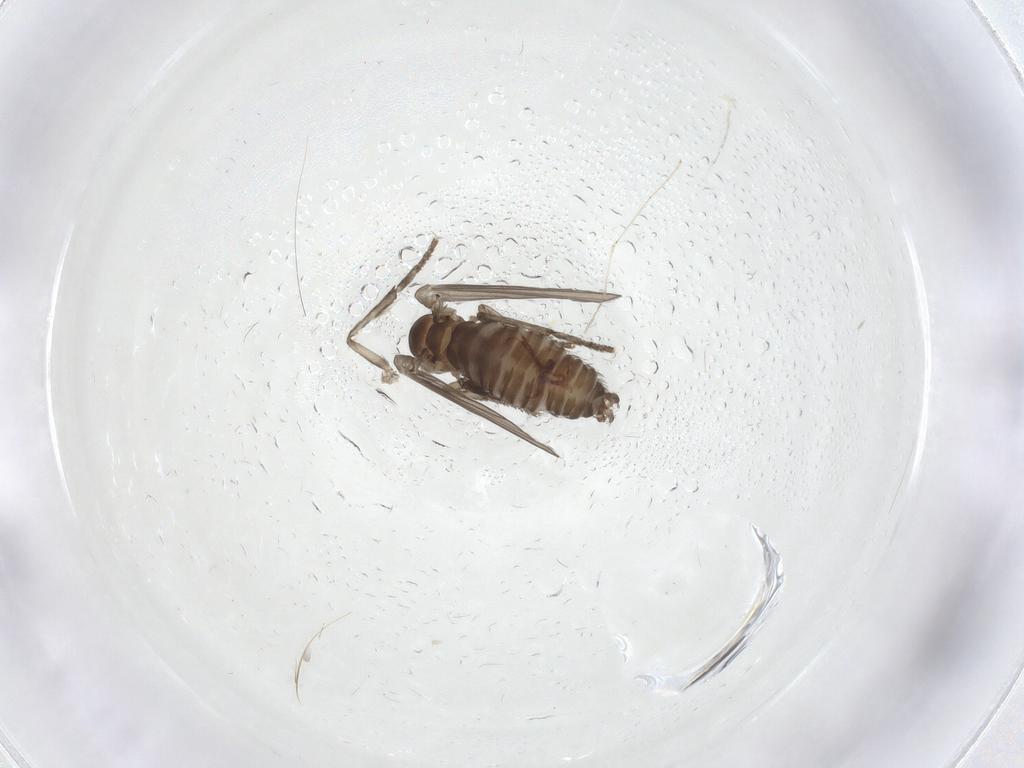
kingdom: Animalia
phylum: Arthropoda
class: Insecta
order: Diptera
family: Psychodidae
